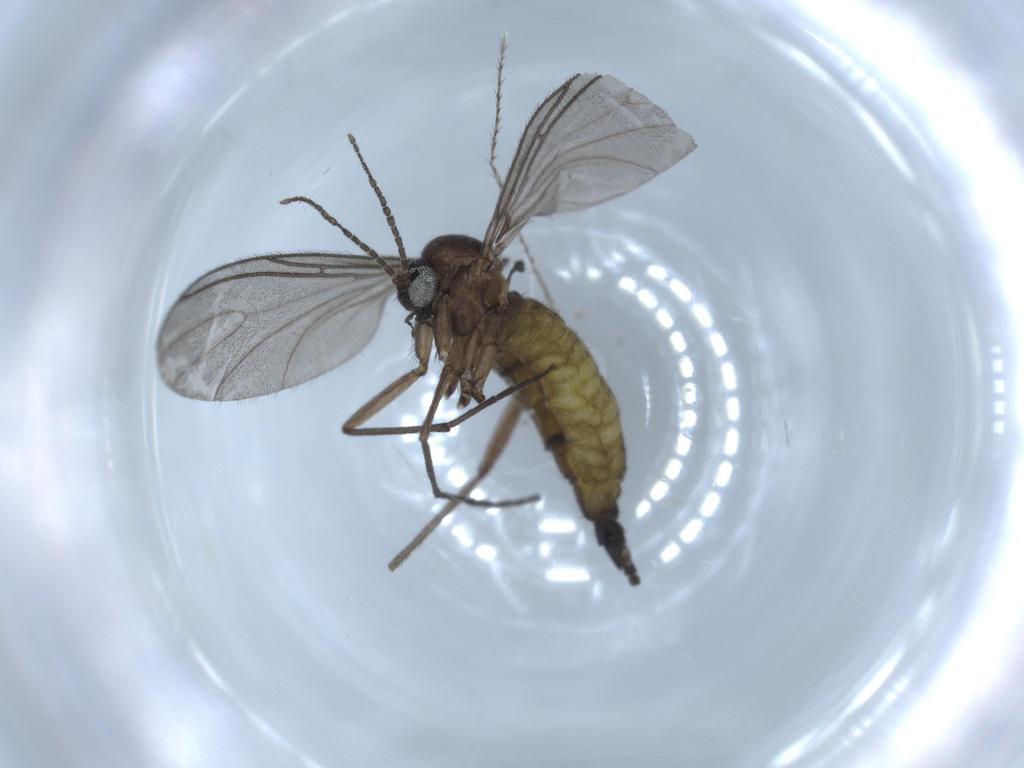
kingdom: Animalia
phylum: Arthropoda
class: Insecta
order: Diptera
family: Sciaridae
